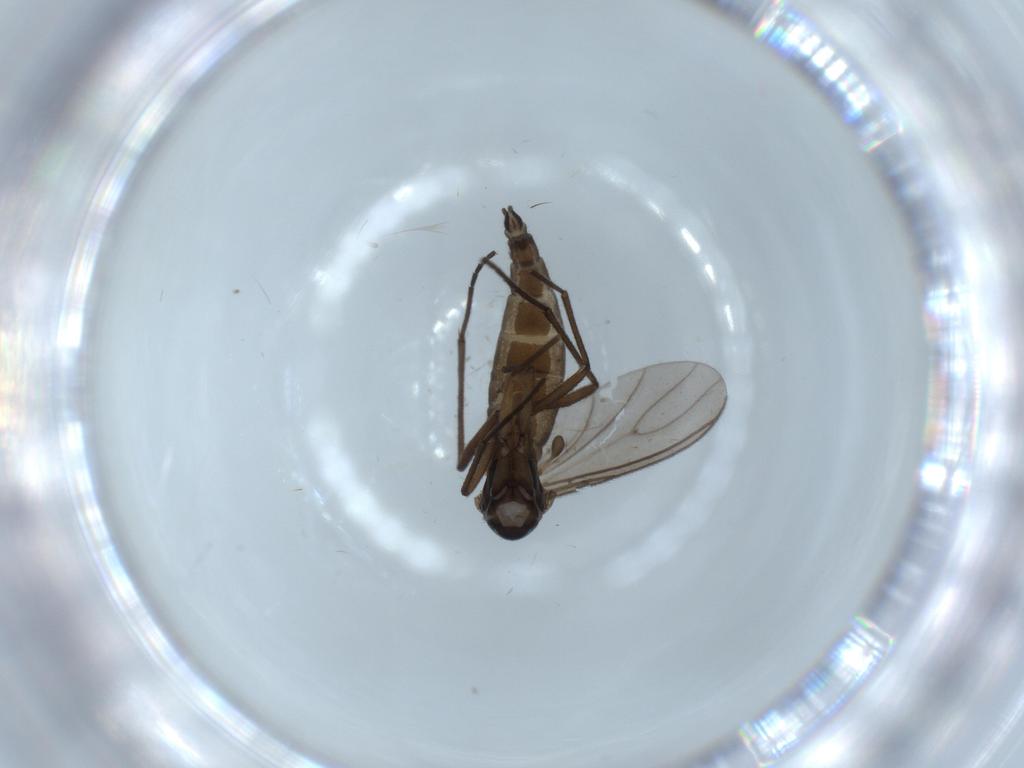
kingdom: Animalia
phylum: Arthropoda
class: Insecta
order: Diptera
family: Sciaridae
